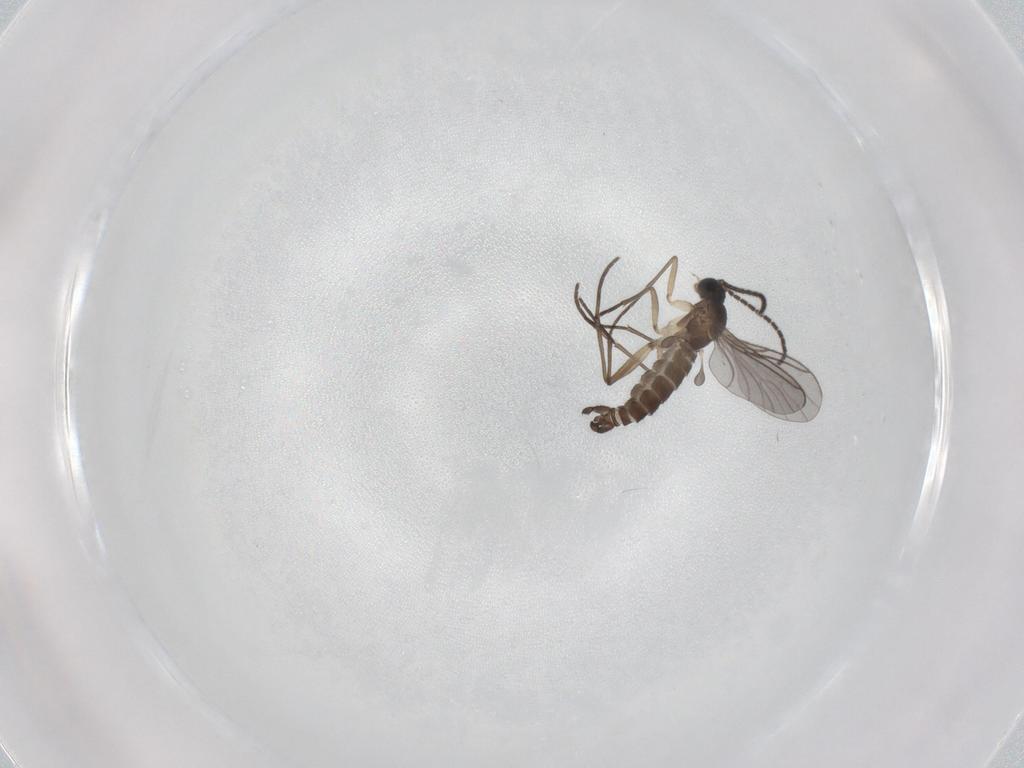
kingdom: Animalia
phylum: Arthropoda
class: Insecta
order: Diptera
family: Sciaridae
